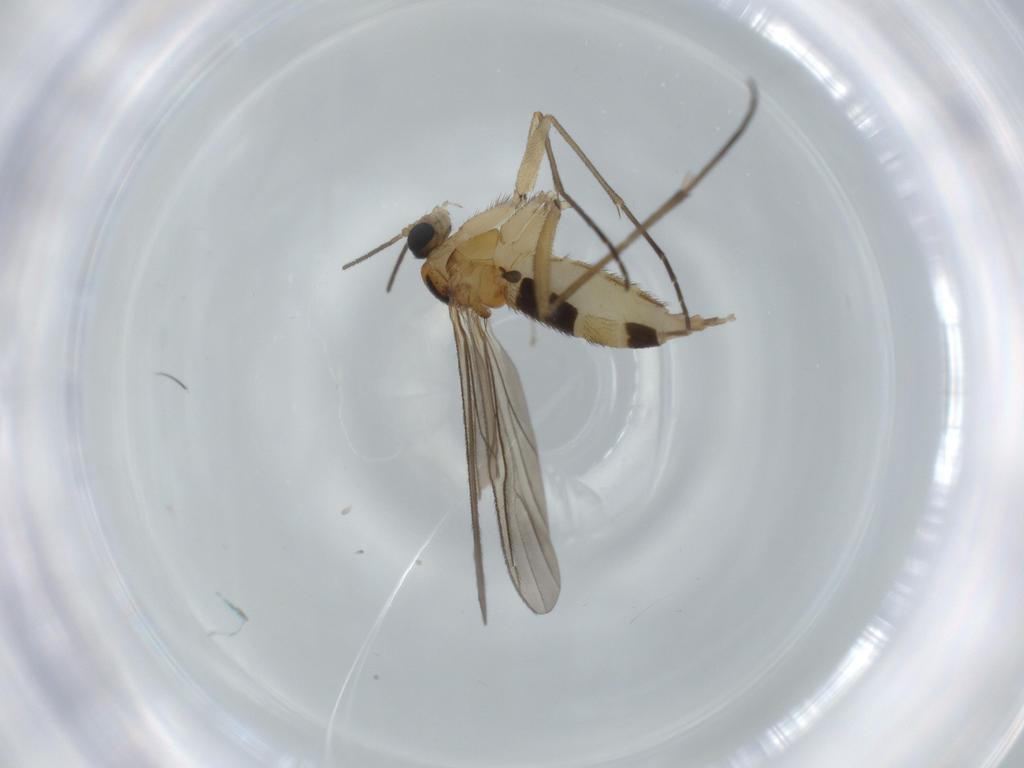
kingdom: Animalia
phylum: Arthropoda
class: Insecta
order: Diptera
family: Phoridae
